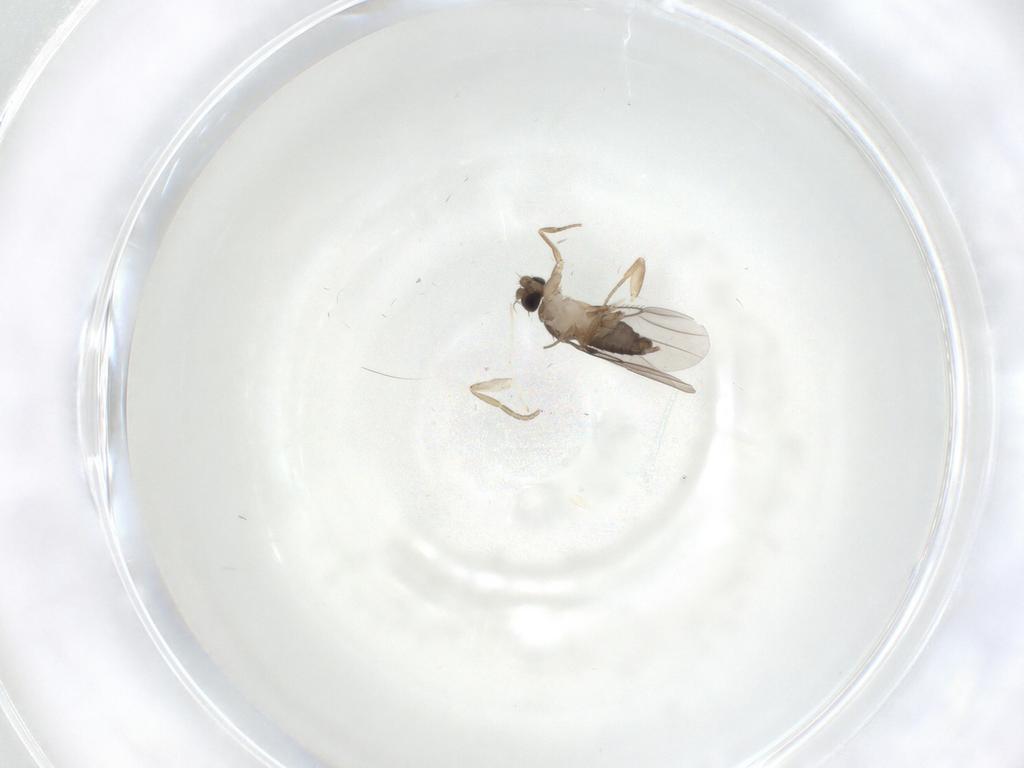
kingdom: Animalia
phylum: Arthropoda
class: Insecta
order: Diptera
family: Phoridae
